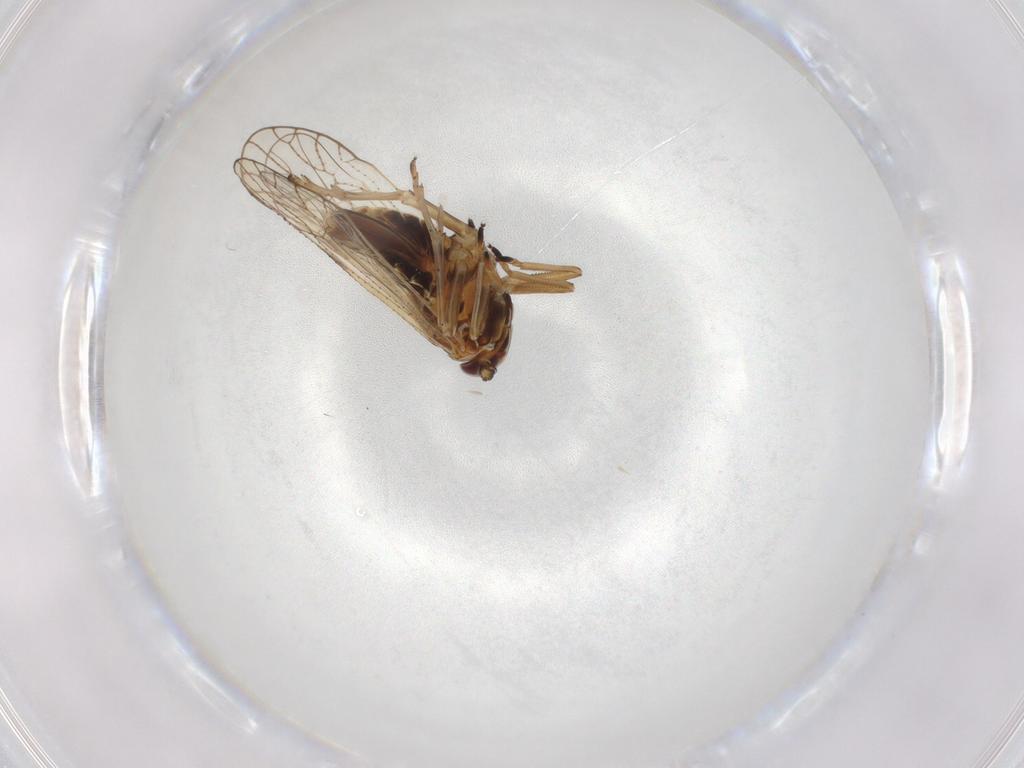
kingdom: Animalia
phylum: Arthropoda
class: Insecta
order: Hemiptera
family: Delphacidae
